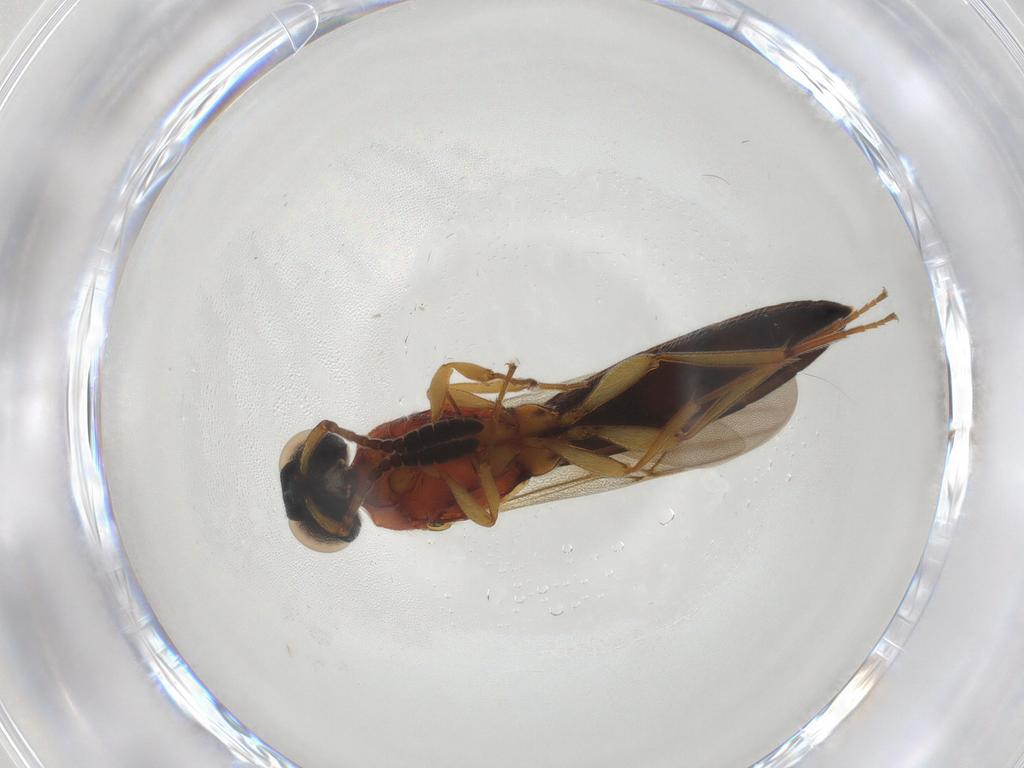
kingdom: Animalia
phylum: Arthropoda
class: Insecta
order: Hymenoptera
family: Scelionidae
